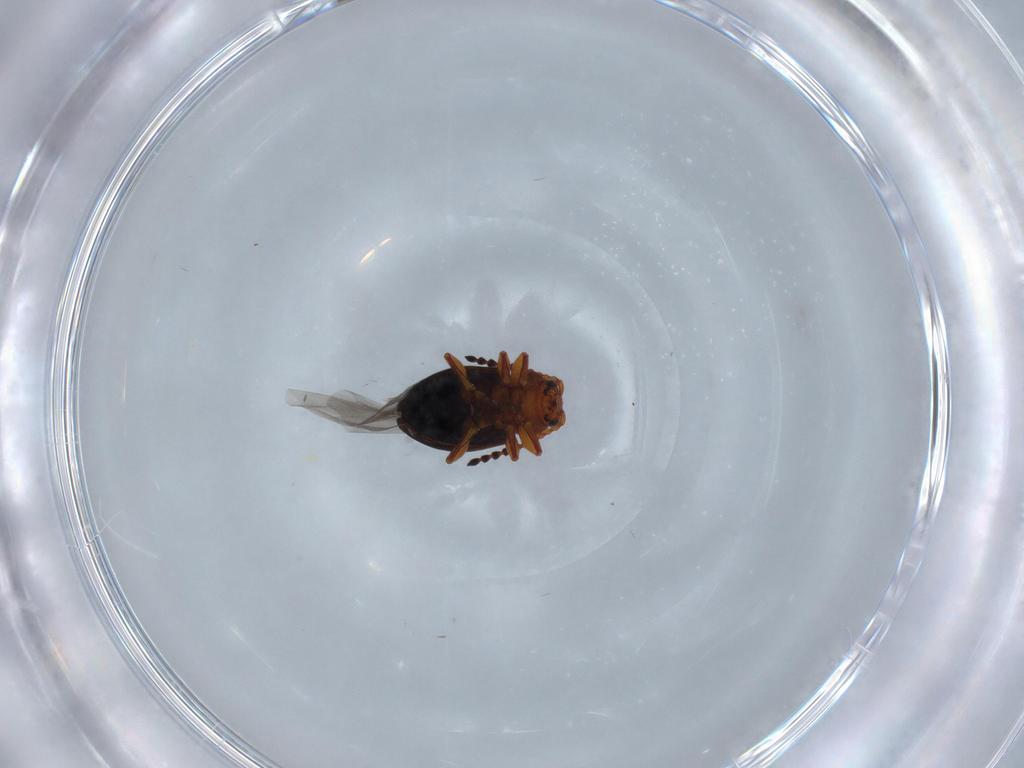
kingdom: Animalia
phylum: Arthropoda
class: Insecta
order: Coleoptera
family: Chrysomelidae
